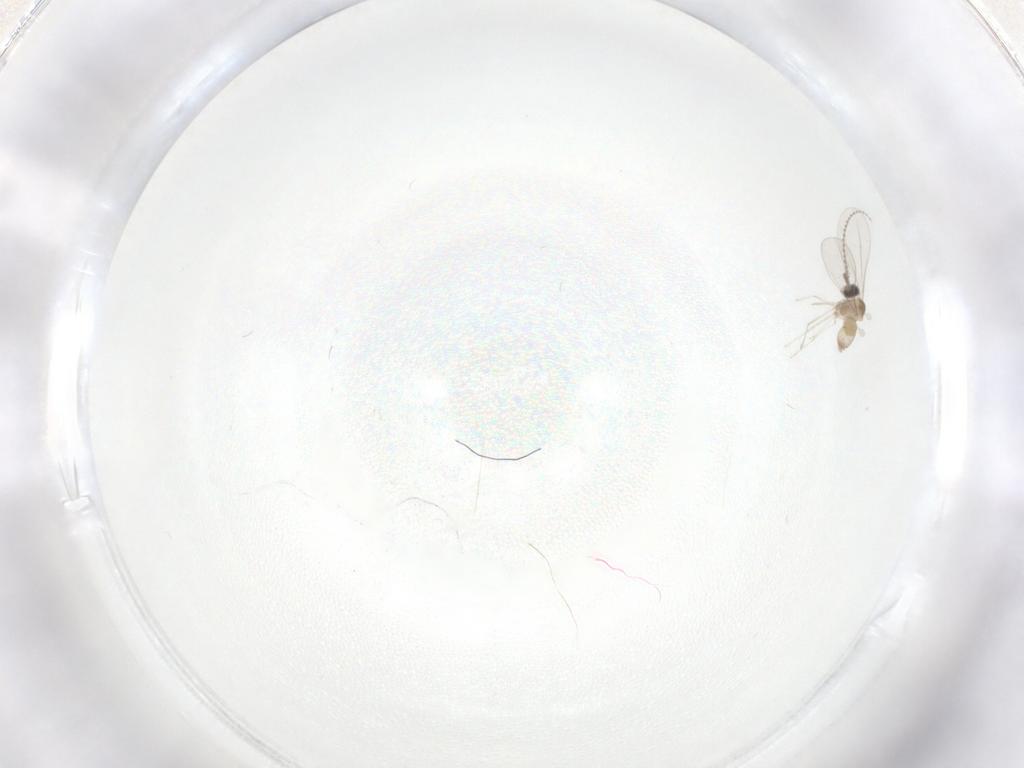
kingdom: Animalia
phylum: Arthropoda
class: Insecta
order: Diptera
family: Cecidomyiidae
